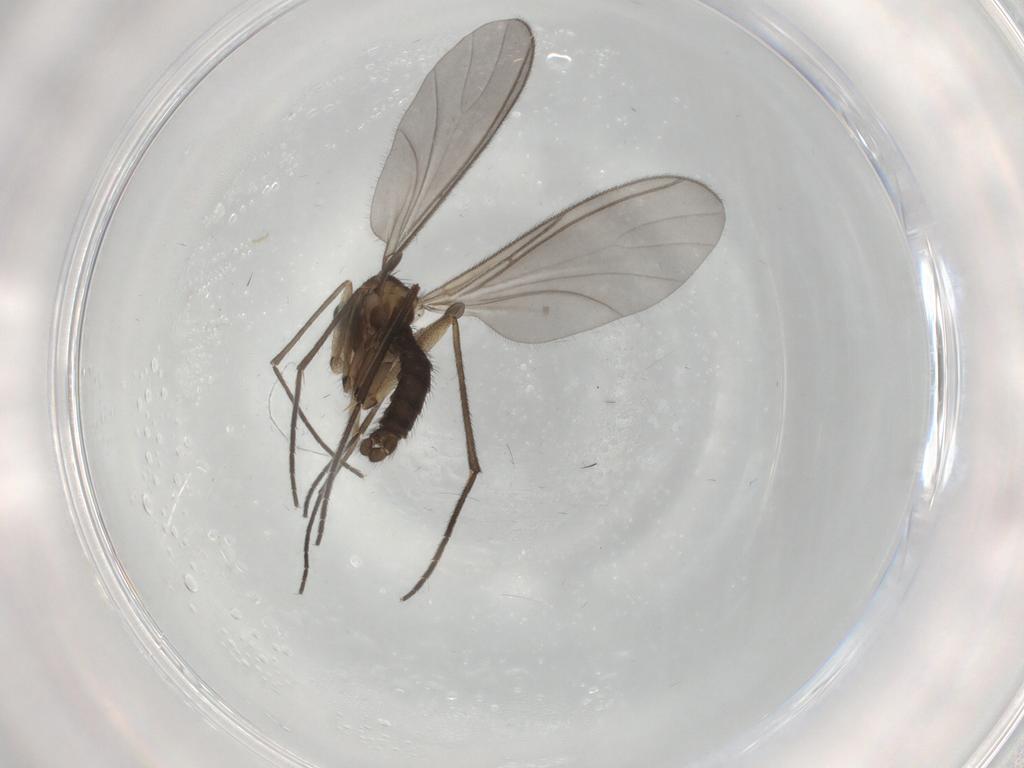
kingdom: Animalia
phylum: Arthropoda
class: Insecta
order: Diptera
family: Sciaridae
